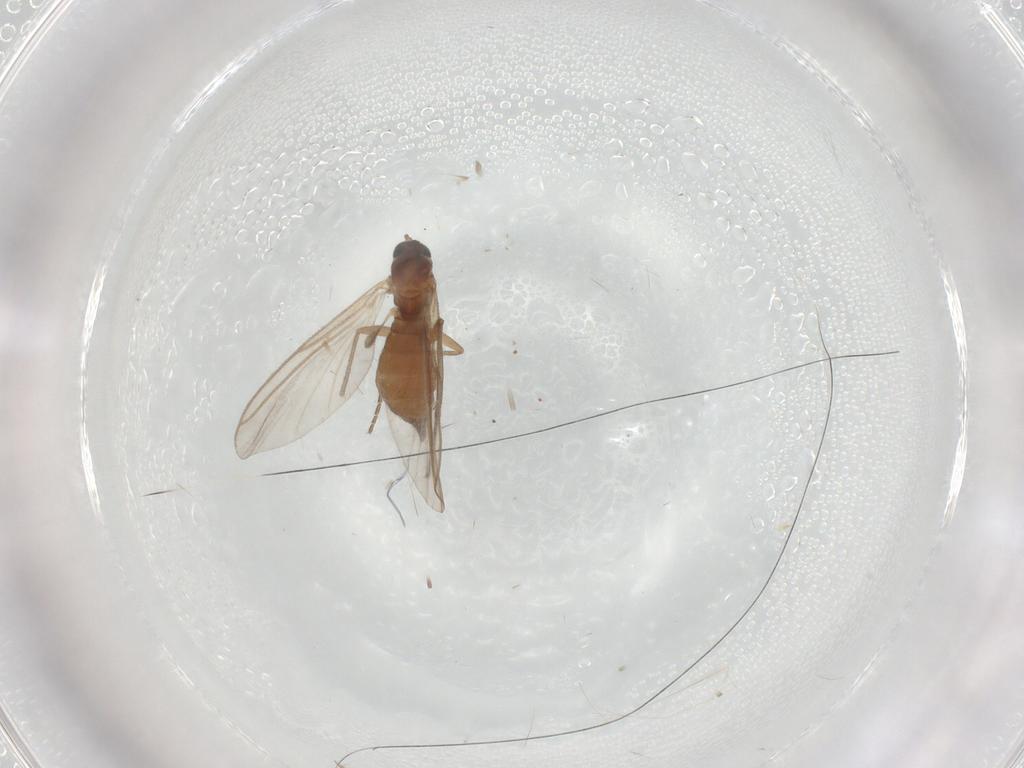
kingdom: Animalia
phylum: Arthropoda
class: Insecta
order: Diptera
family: Sciaridae
